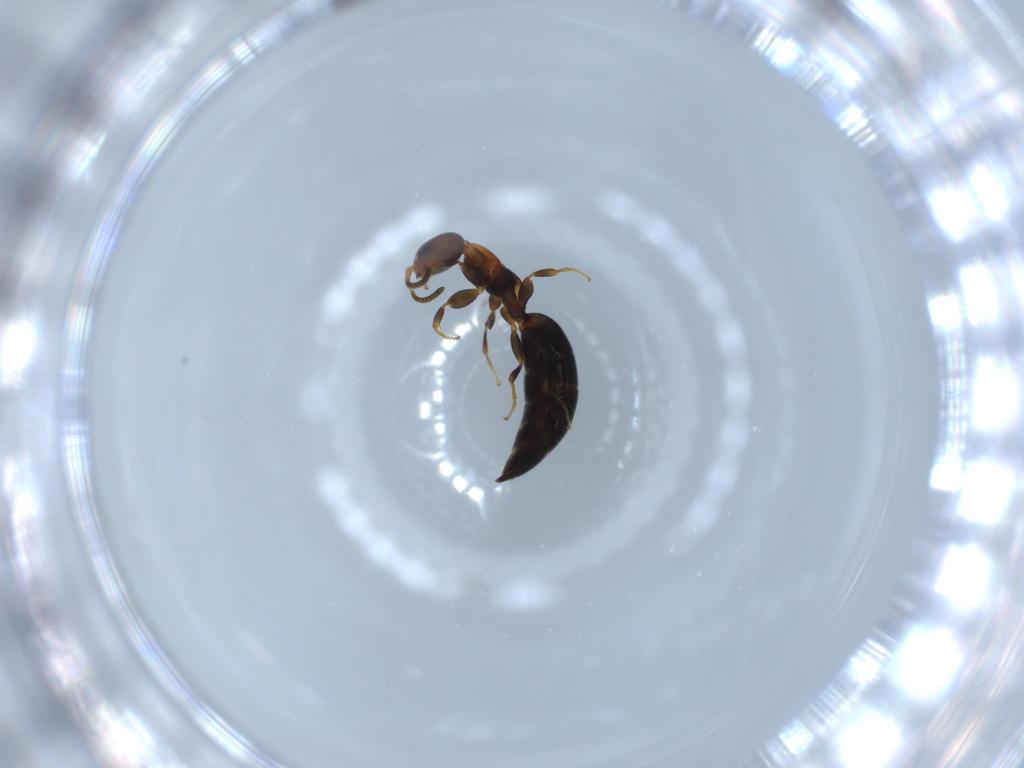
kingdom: Animalia
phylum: Arthropoda
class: Insecta
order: Hymenoptera
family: Bethylidae
